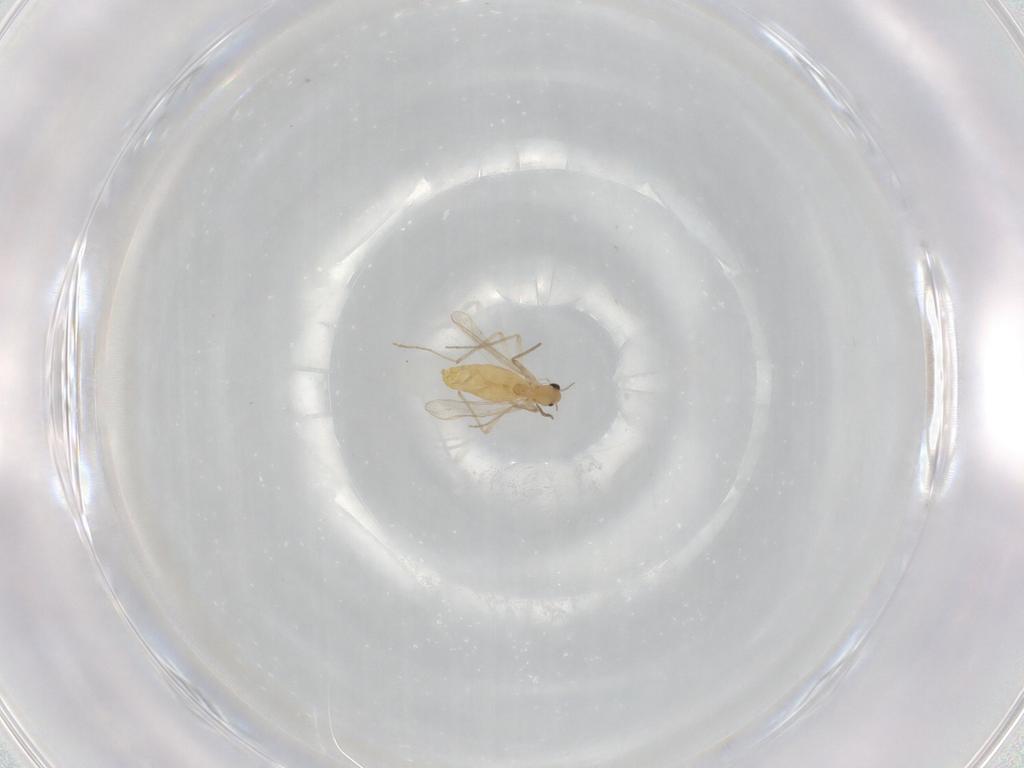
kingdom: Animalia
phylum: Arthropoda
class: Insecta
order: Diptera
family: Chironomidae
